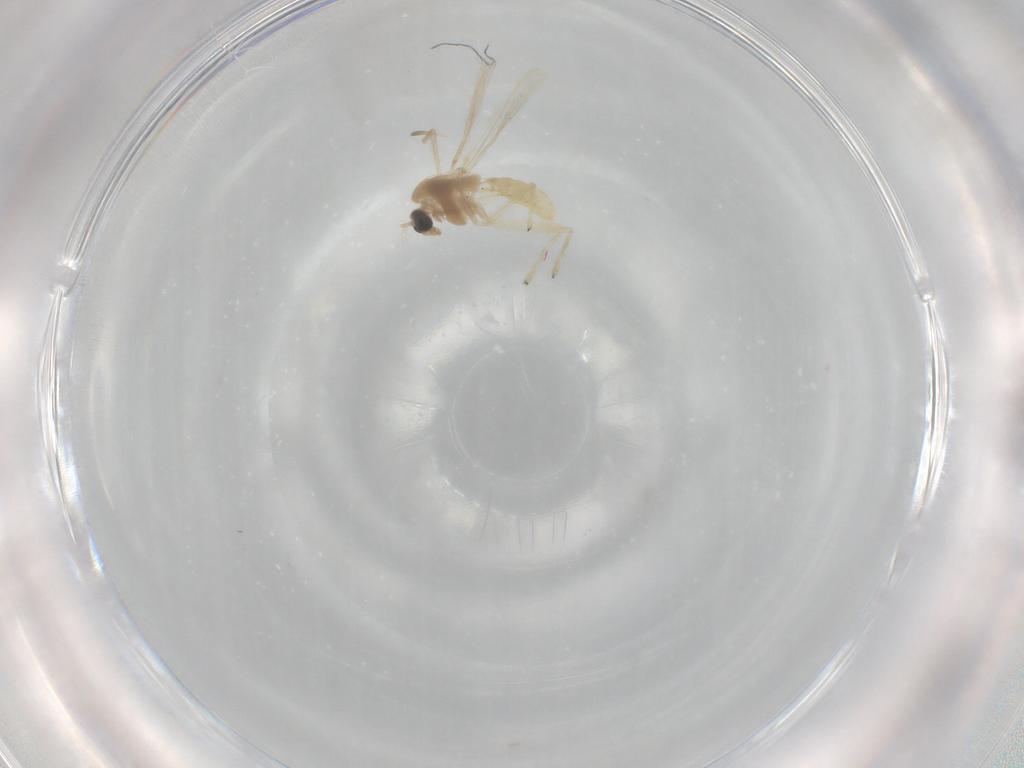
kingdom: Animalia
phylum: Arthropoda
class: Insecta
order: Diptera
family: Chironomidae
